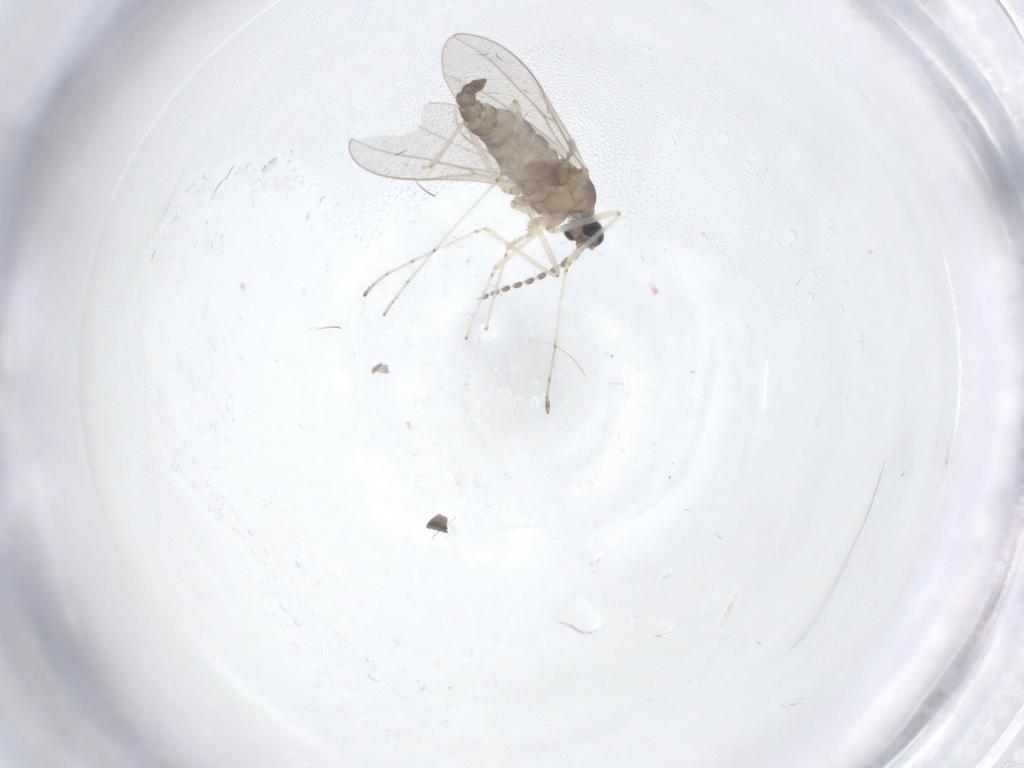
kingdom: Animalia
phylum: Arthropoda
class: Insecta
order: Diptera
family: Cecidomyiidae
